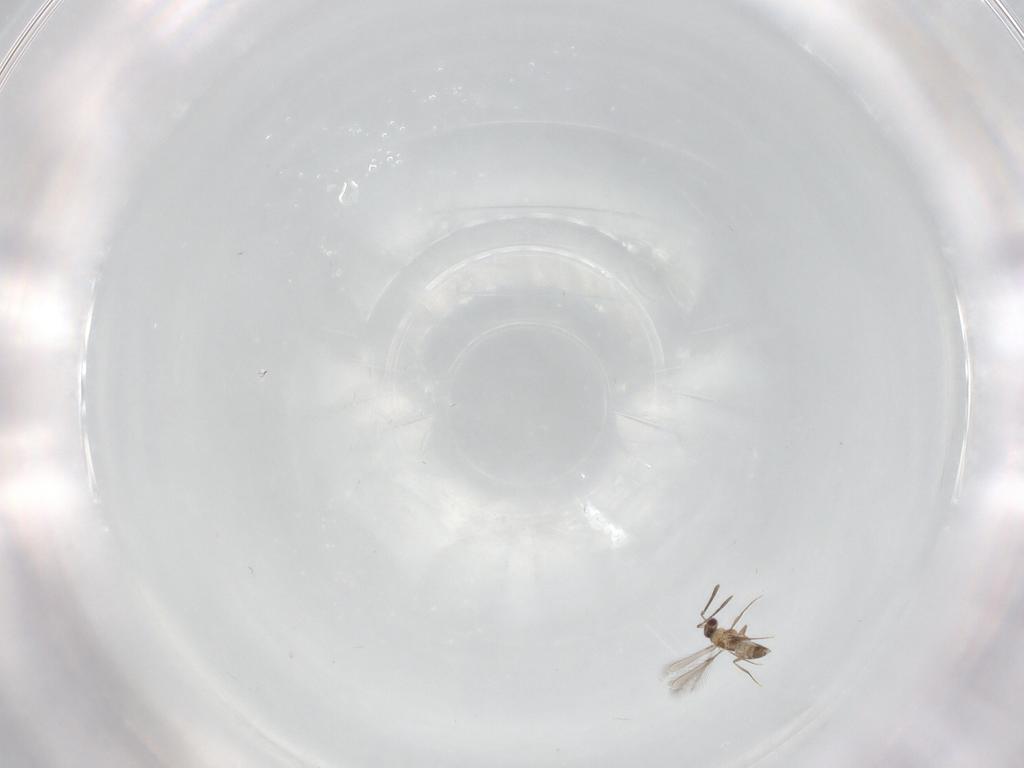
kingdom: Animalia
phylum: Arthropoda
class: Insecta
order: Hymenoptera
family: Mymaridae
